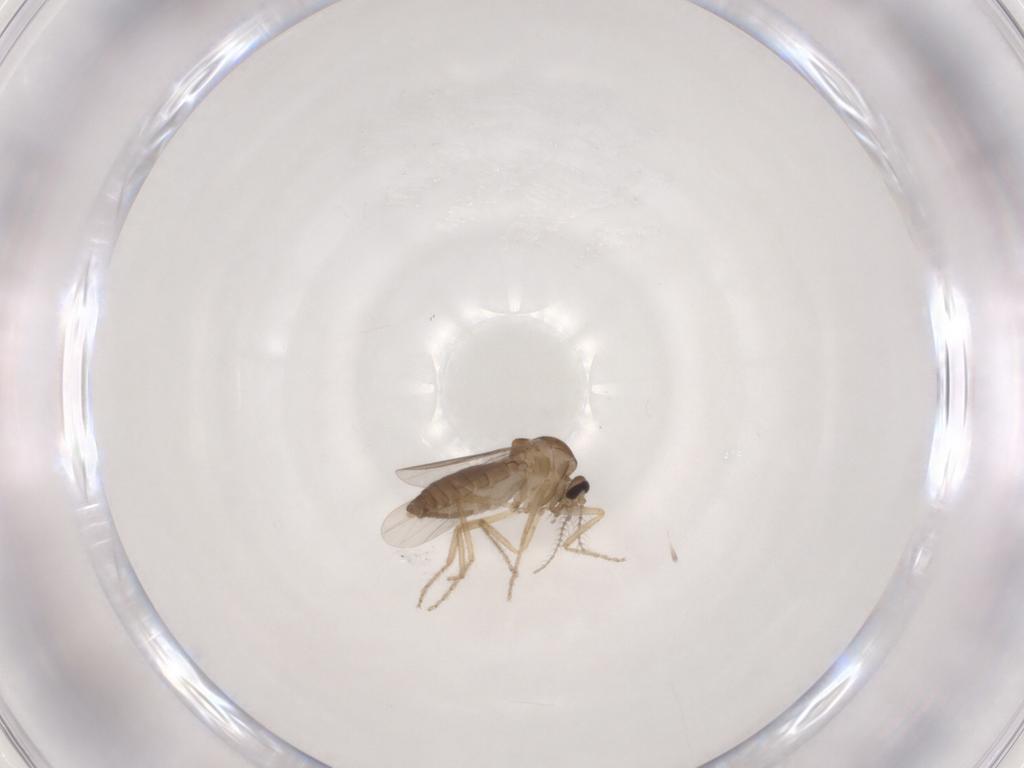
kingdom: Animalia
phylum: Arthropoda
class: Insecta
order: Diptera
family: Ceratopogonidae
